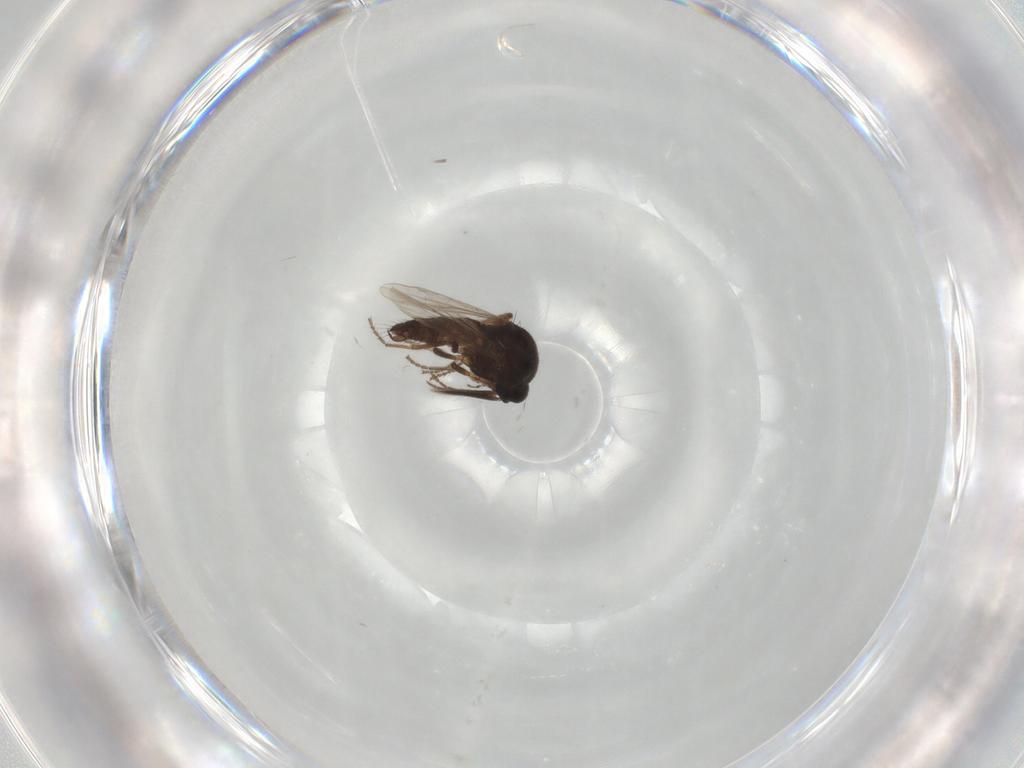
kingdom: Animalia
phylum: Arthropoda
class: Insecta
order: Diptera
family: Ceratopogonidae
